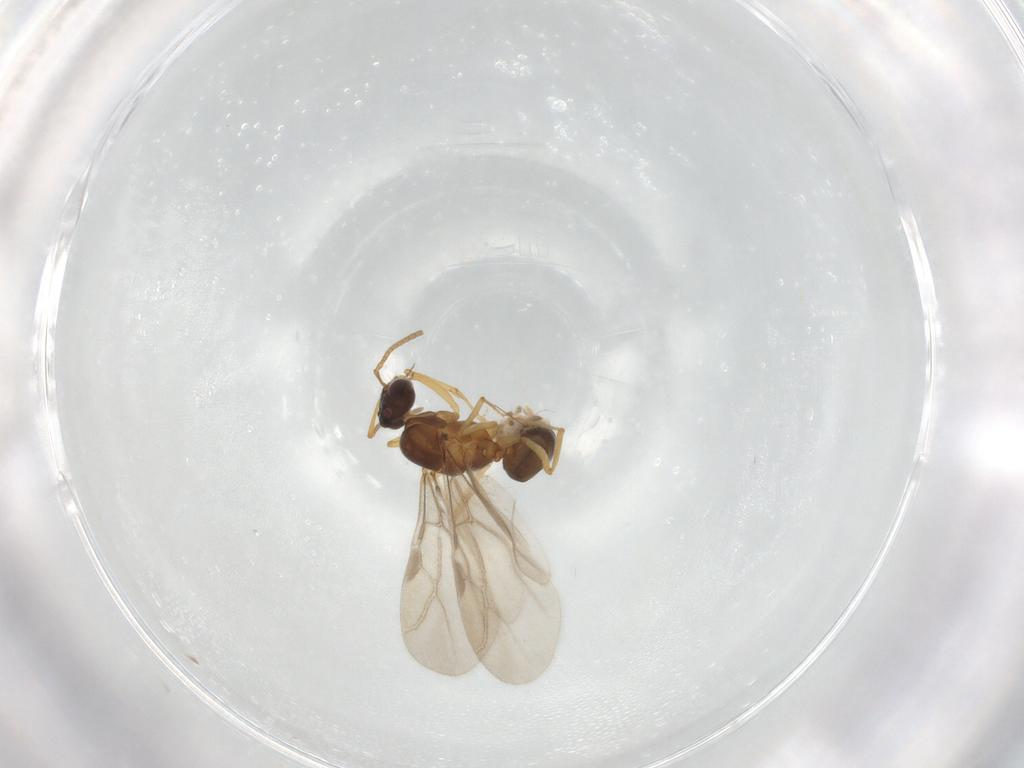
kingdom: Animalia
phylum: Arthropoda
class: Insecta
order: Hymenoptera
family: Formicidae
